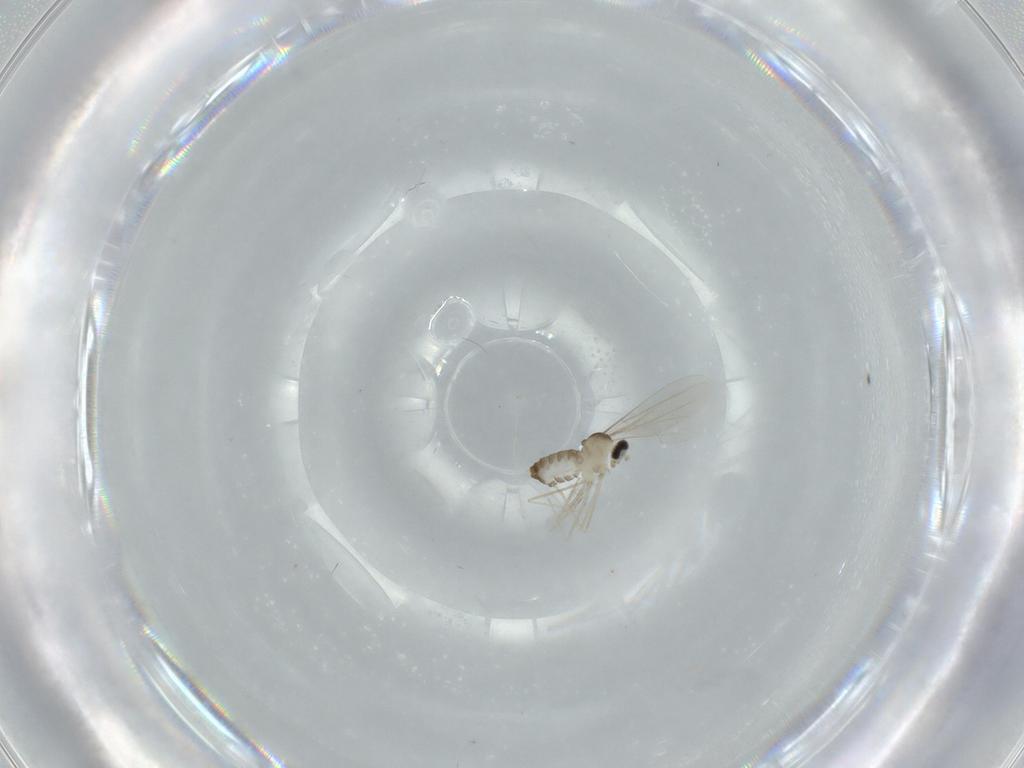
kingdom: Animalia
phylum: Arthropoda
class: Insecta
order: Diptera
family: Cecidomyiidae
